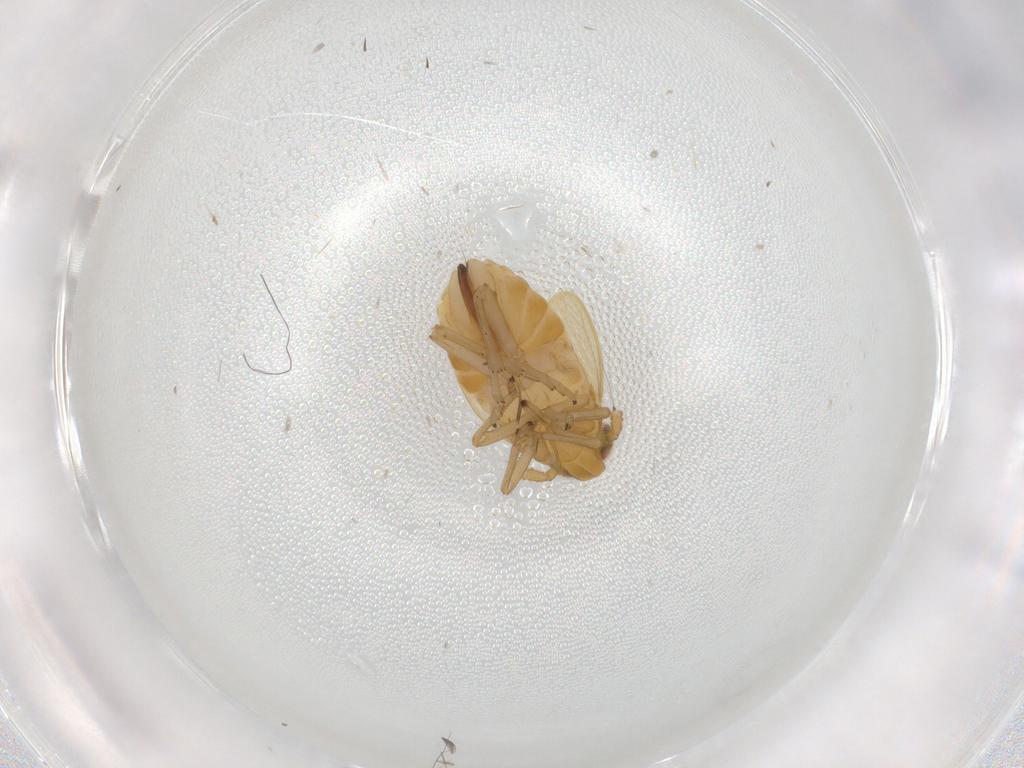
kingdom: Animalia
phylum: Arthropoda
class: Insecta
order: Hemiptera
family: Delphacidae
